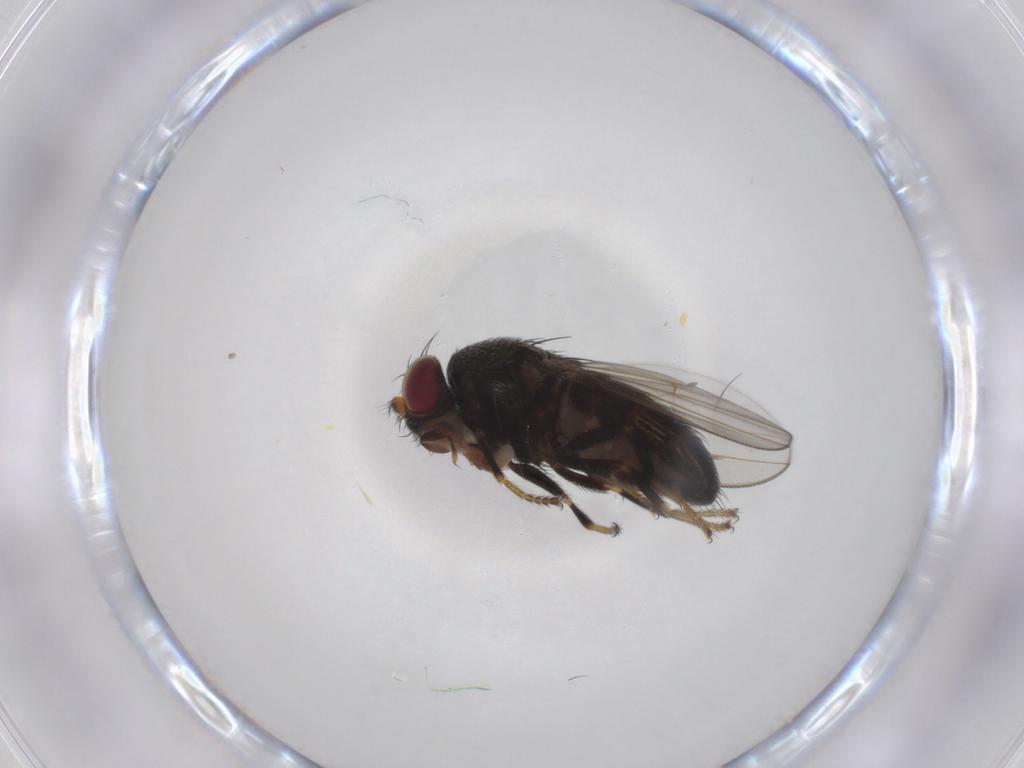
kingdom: Animalia
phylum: Arthropoda
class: Insecta
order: Diptera
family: Ephydridae
